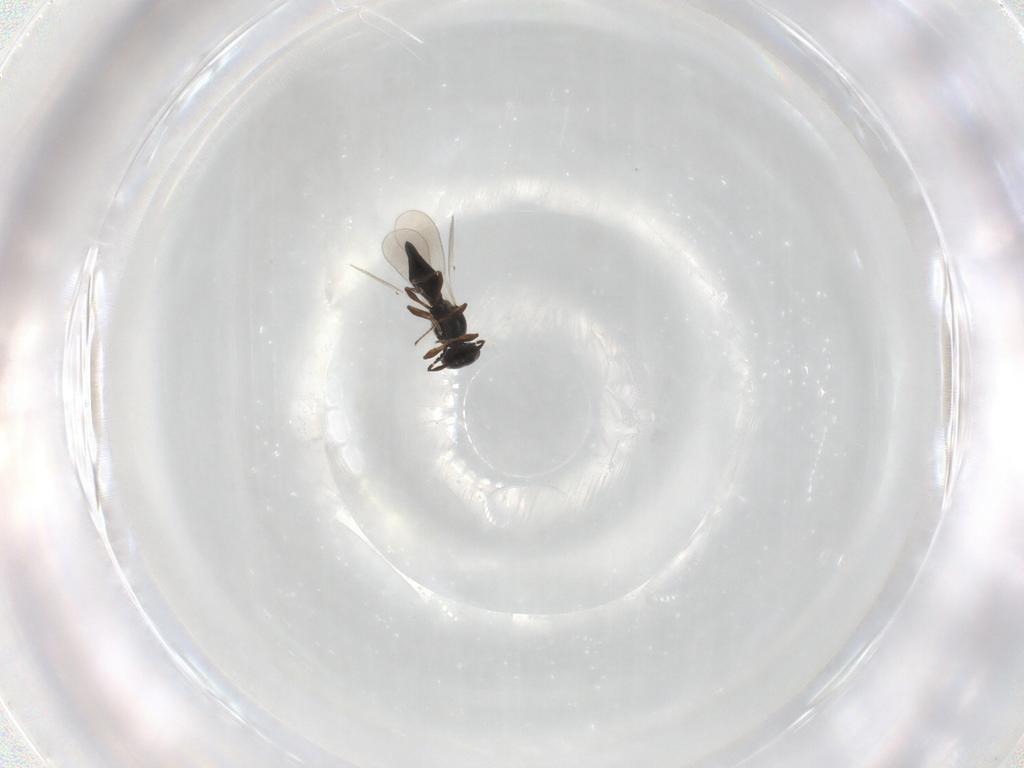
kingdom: Animalia
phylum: Arthropoda
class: Insecta
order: Hymenoptera
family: Platygastridae
